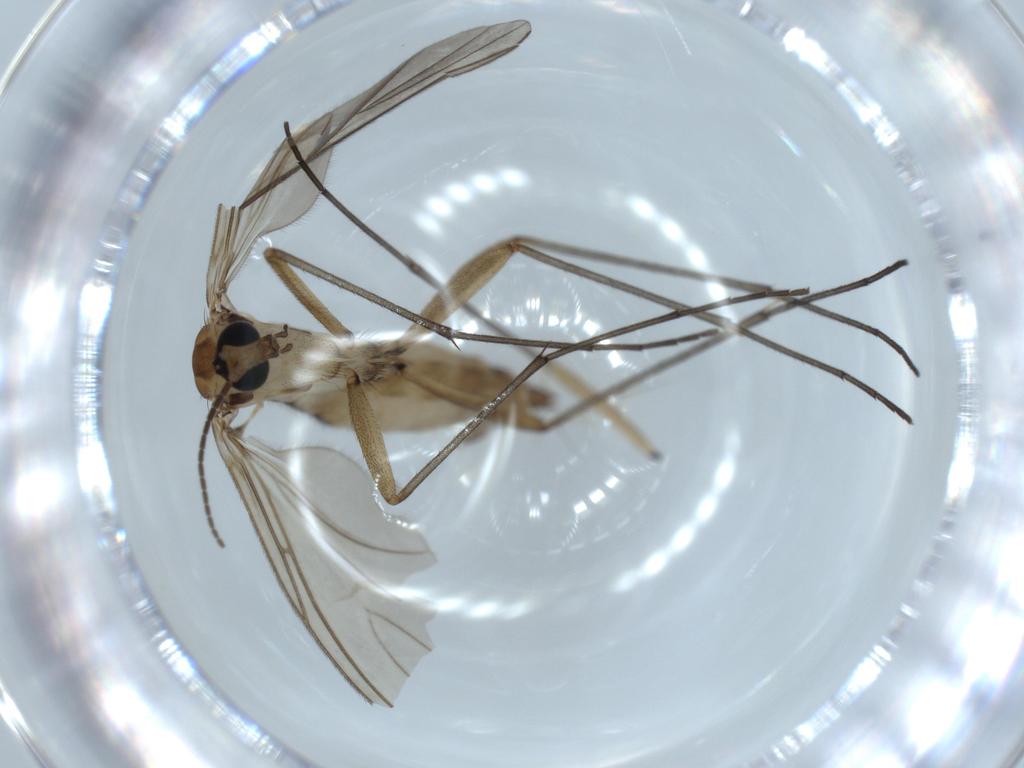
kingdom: Animalia
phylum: Arthropoda
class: Insecta
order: Diptera
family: Sciaridae
